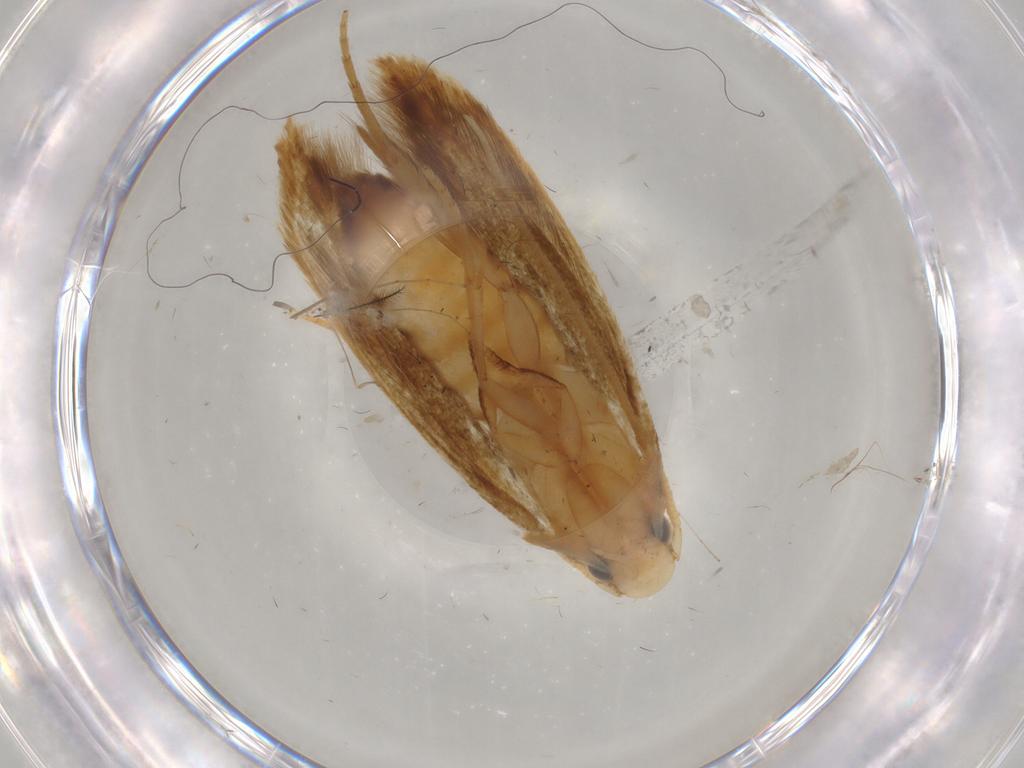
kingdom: Animalia
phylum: Arthropoda
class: Insecta
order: Lepidoptera
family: Tineidae
